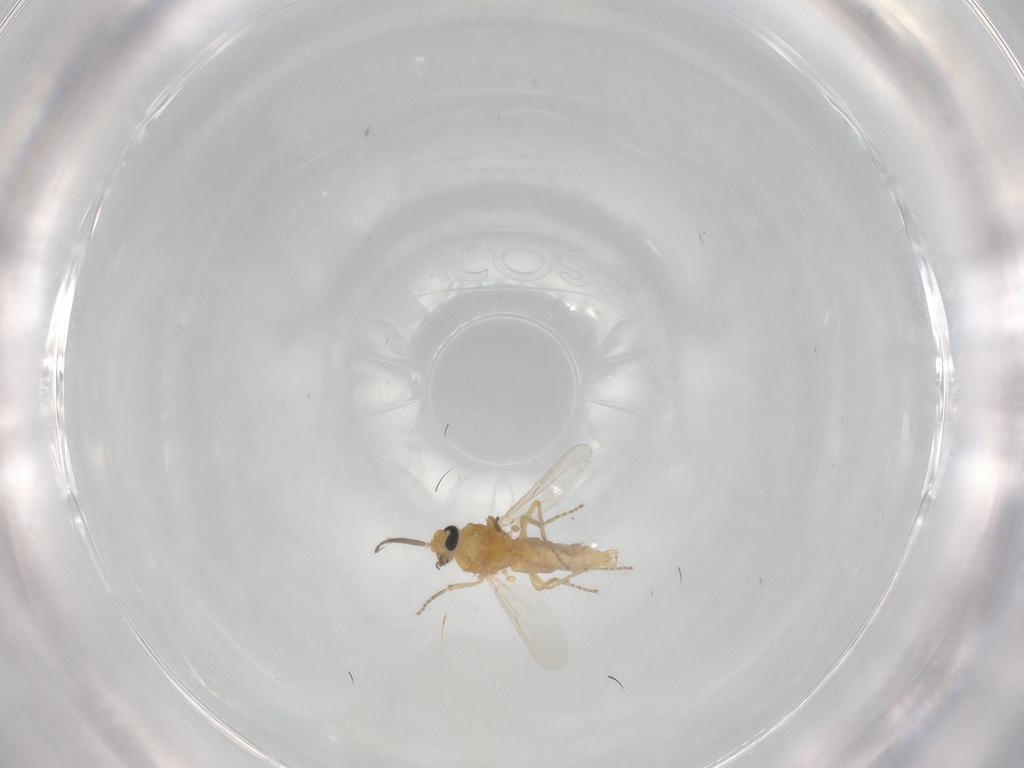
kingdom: Animalia
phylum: Arthropoda
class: Insecta
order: Diptera
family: Ceratopogonidae
